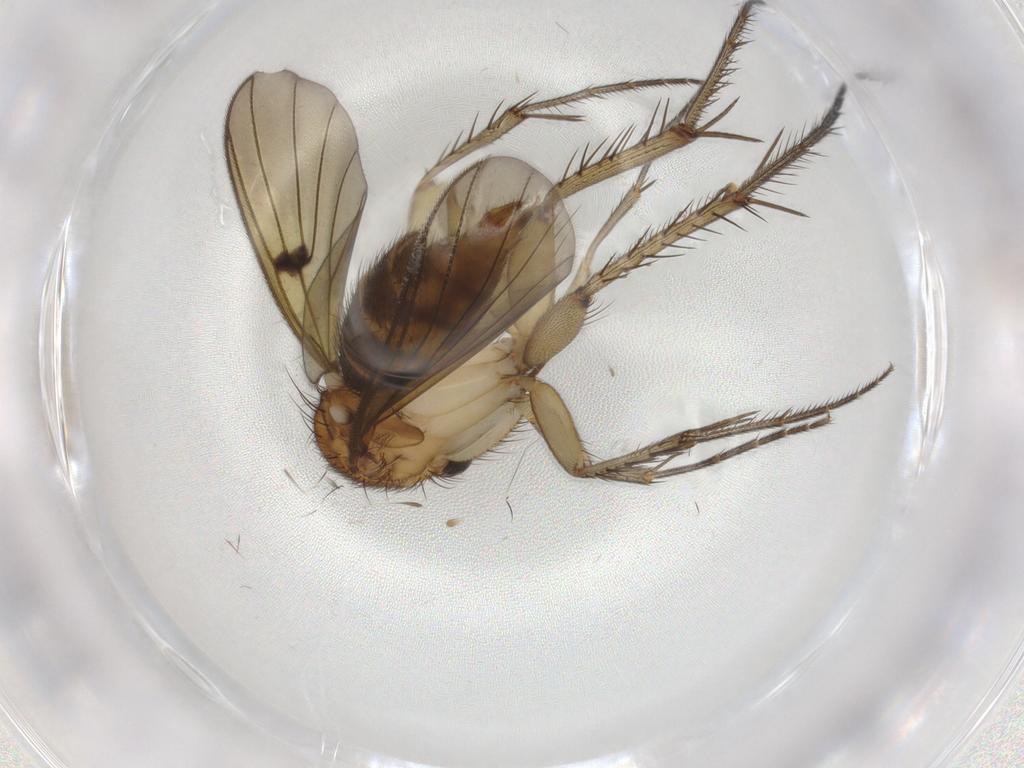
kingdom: Animalia
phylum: Arthropoda
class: Insecta
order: Diptera
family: Mycetophilidae
